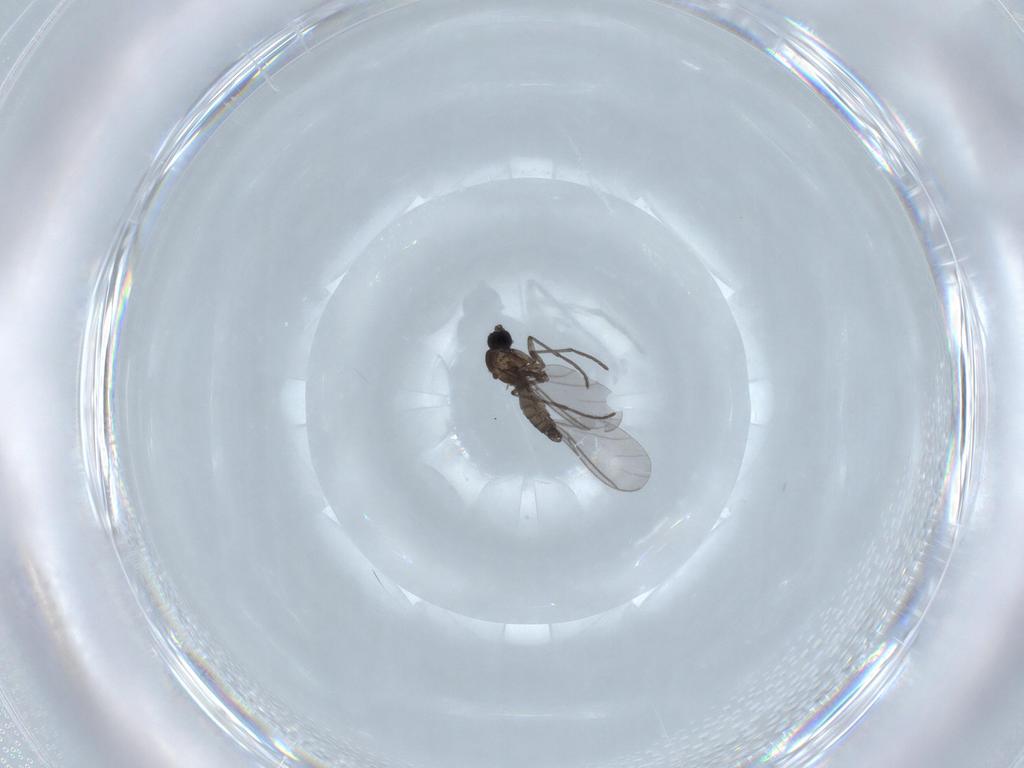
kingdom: Animalia
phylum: Arthropoda
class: Insecta
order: Diptera
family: Sciaridae
